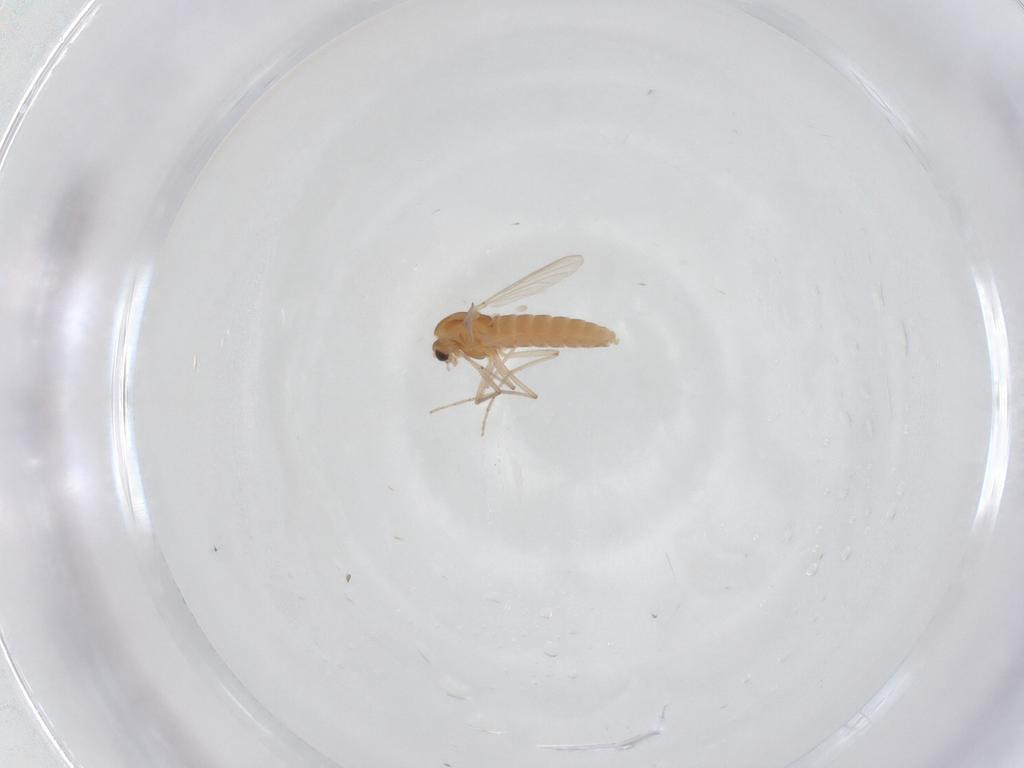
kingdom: Animalia
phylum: Arthropoda
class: Insecta
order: Diptera
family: Chironomidae
